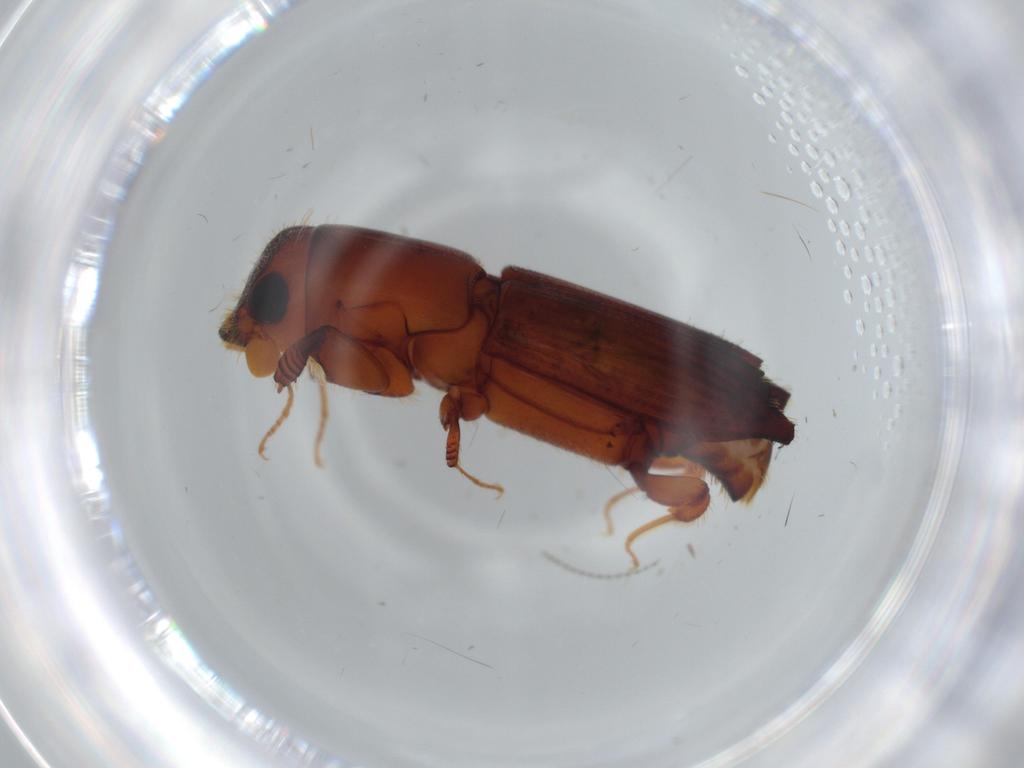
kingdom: Animalia
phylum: Arthropoda
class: Insecta
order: Coleoptera
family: Curculionidae
